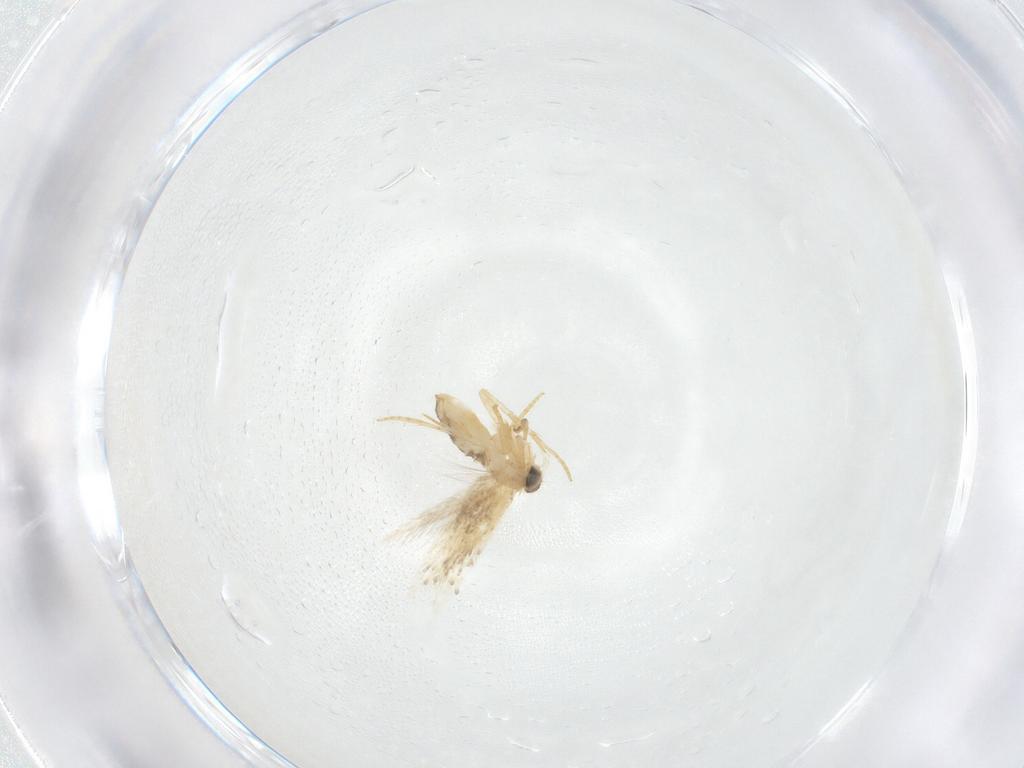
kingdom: Animalia
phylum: Arthropoda
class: Insecta
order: Lepidoptera
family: Nepticulidae
